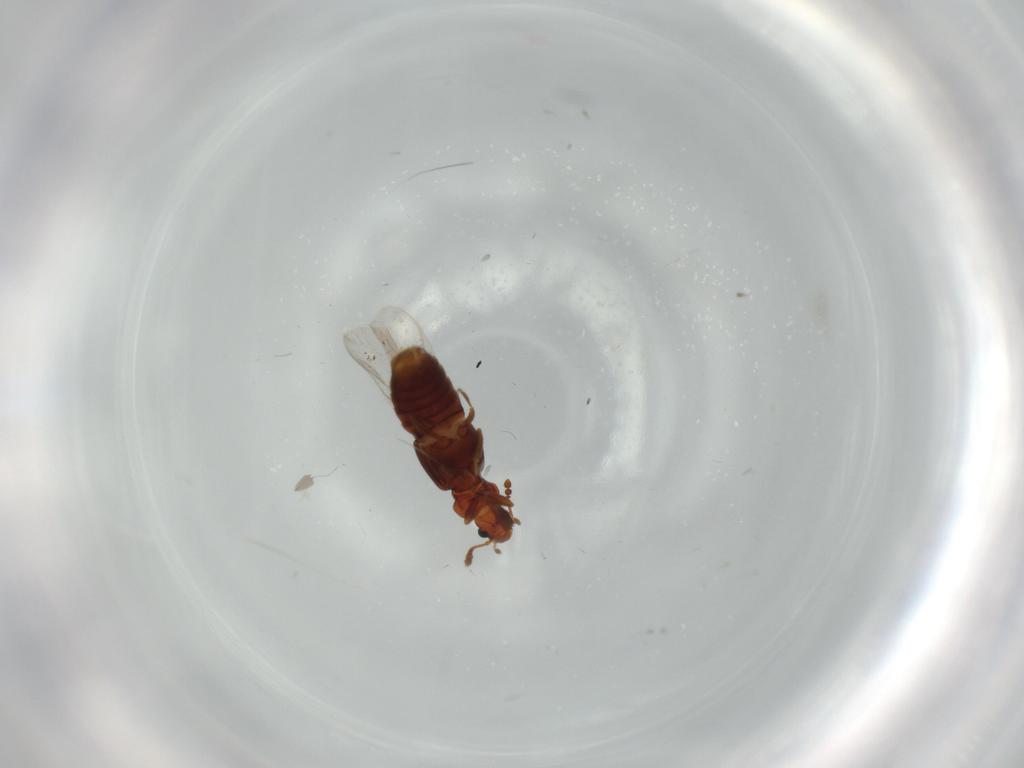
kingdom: Animalia
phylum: Arthropoda
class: Insecta
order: Coleoptera
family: Staphylinidae
